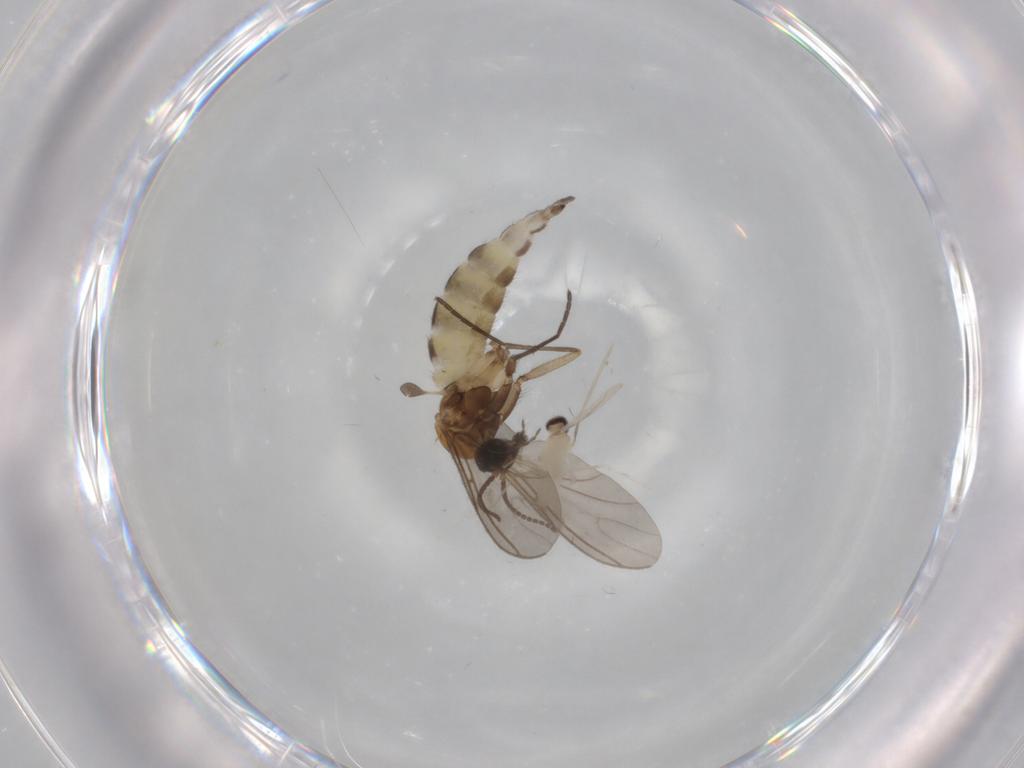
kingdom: Animalia
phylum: Arthropoda
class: Insecta
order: Diptera
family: Sciaridae
